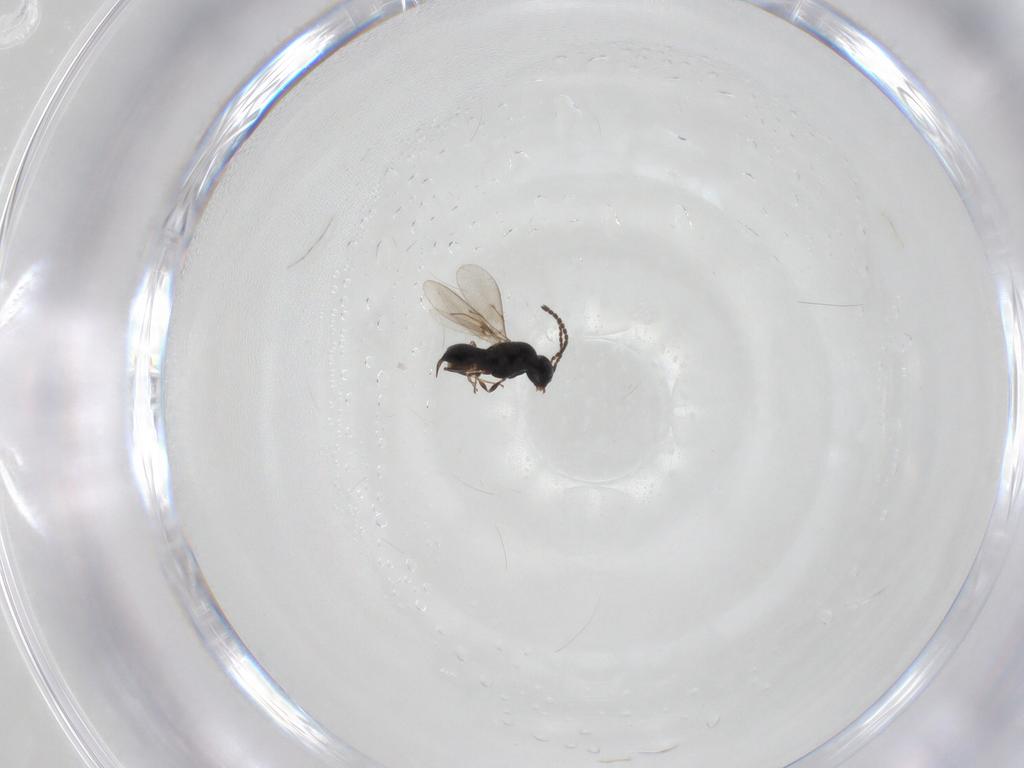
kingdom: Animalia
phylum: Arthropoda
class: Insecta
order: Hymenoptera
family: Scelionidae
